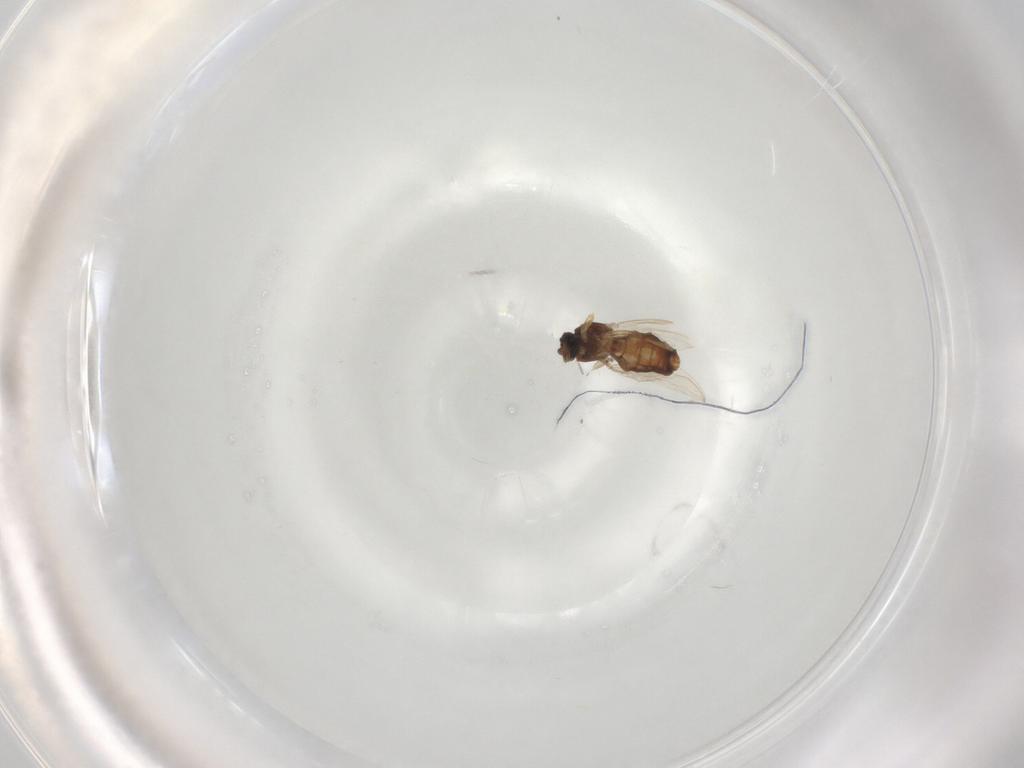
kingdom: Animalia
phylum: Arthropoda
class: Insecta
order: Diptera
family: Ceratopogonidae
